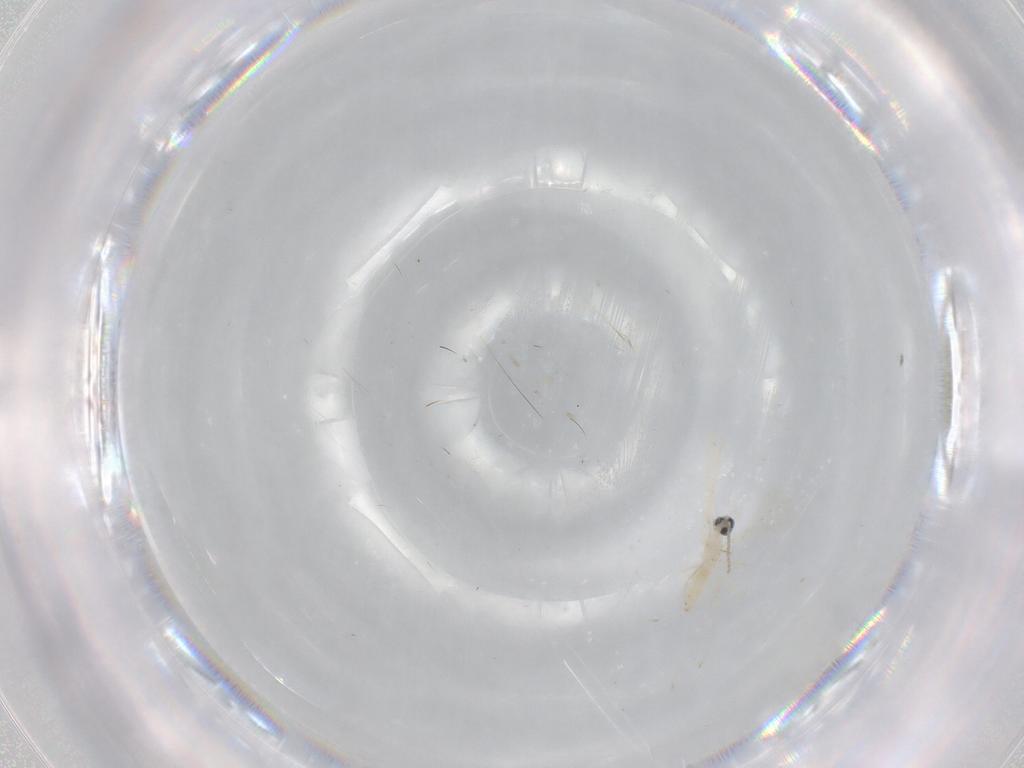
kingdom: Animalia
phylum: Arthropoda
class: Insecta
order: Diptera
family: Cecidomyiidae
